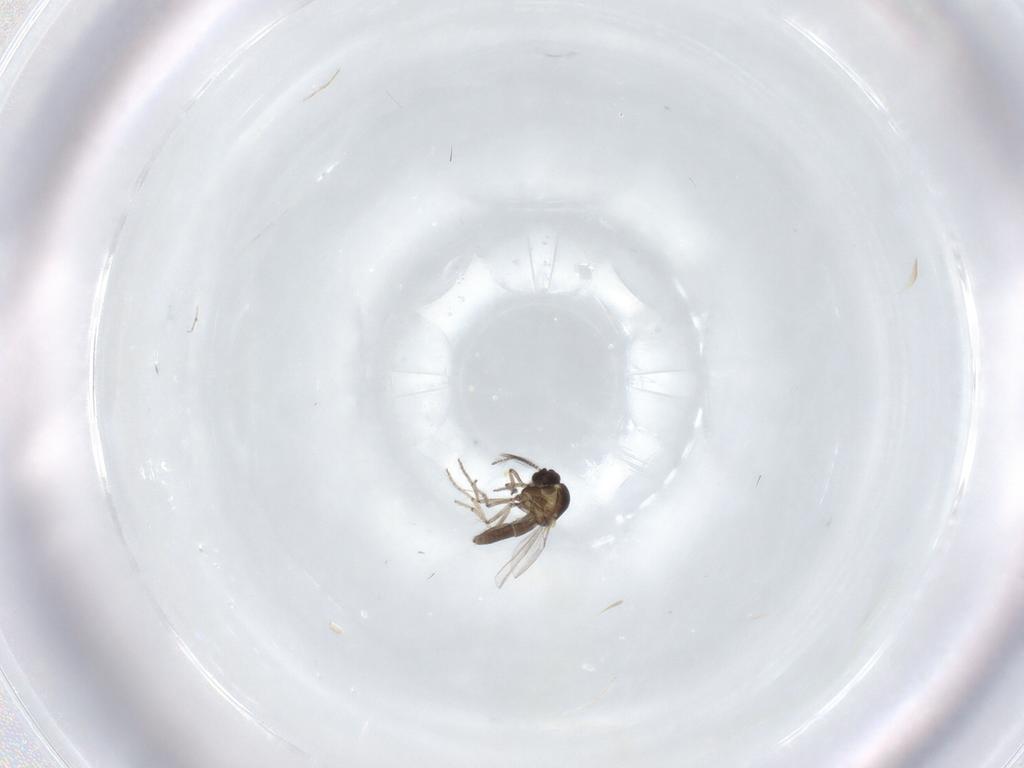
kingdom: Animalia
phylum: Arthropoda
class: Insecta
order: Diptera
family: Ceratopogonidae
